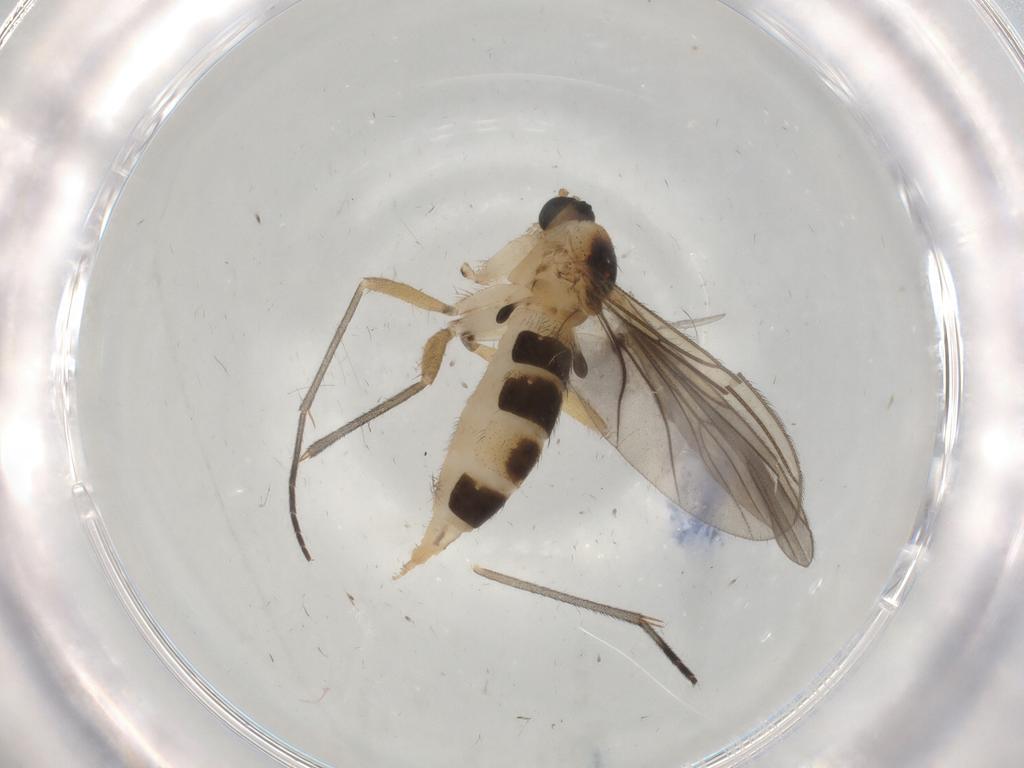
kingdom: Animalia
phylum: Arthropoda
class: Insecta
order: Diptera
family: Sciaridae
